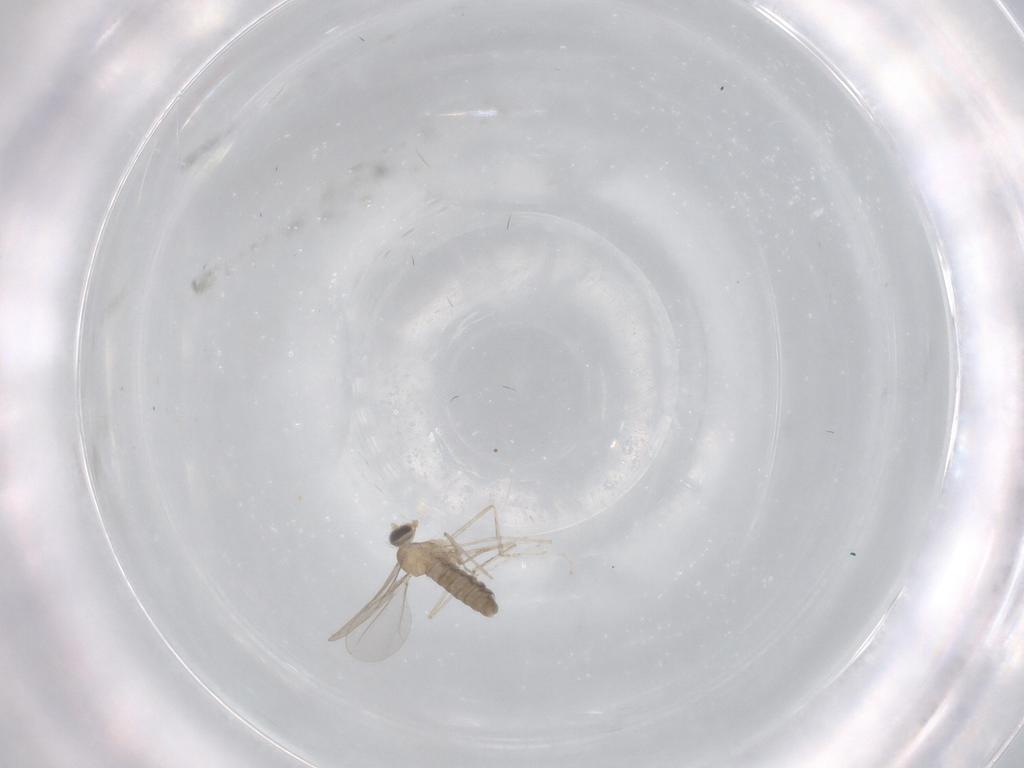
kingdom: Animalia
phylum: Arthropoda
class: Insecta
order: Diptera
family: Cecidomyiidae
